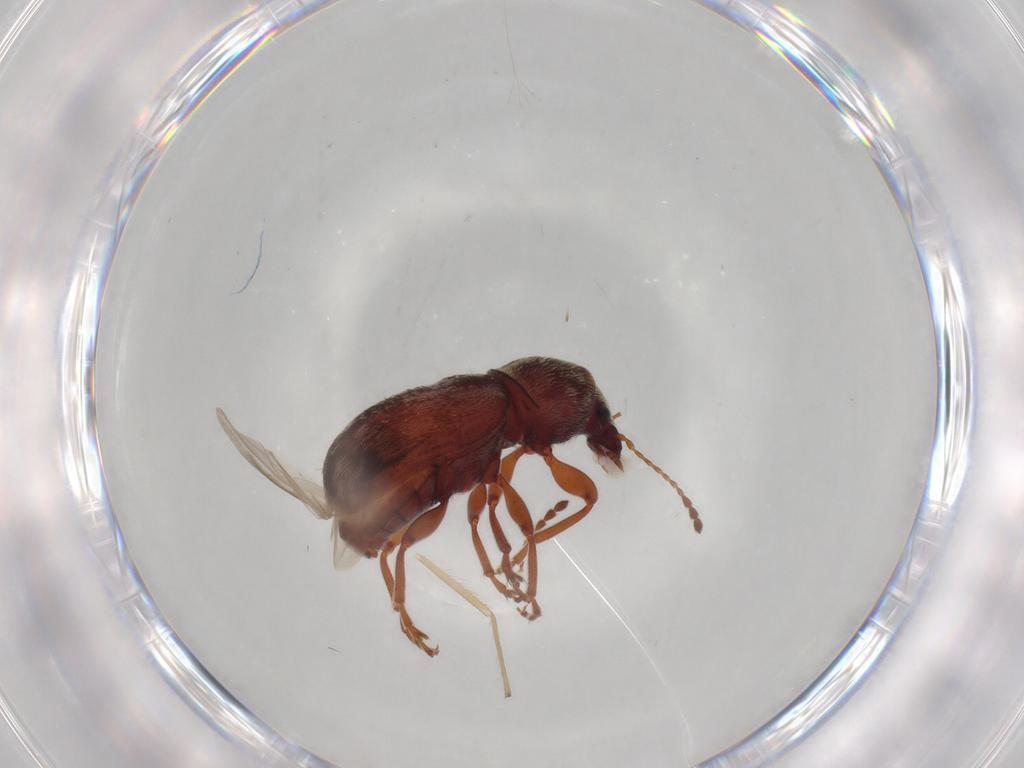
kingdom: Animalia
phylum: Arthropoda
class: Insecta
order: Coleoptera
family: Anthribidae
